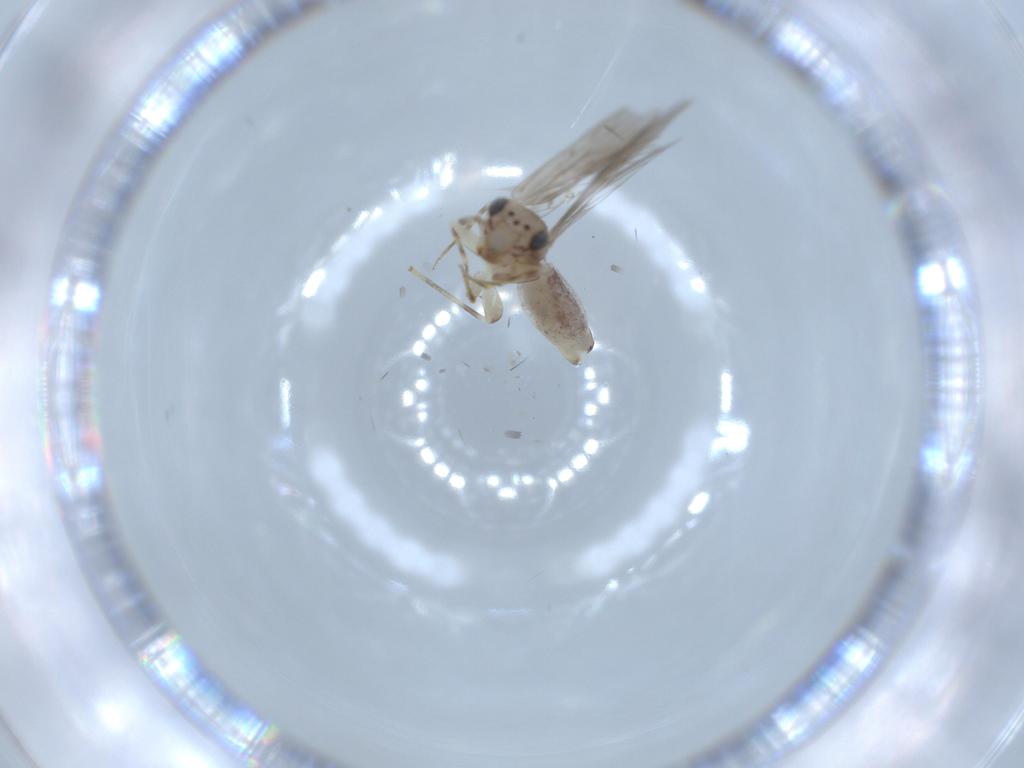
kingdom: Animalia
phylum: Arthropoda
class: Insecta
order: Psocodea
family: Lepidopsocidae
